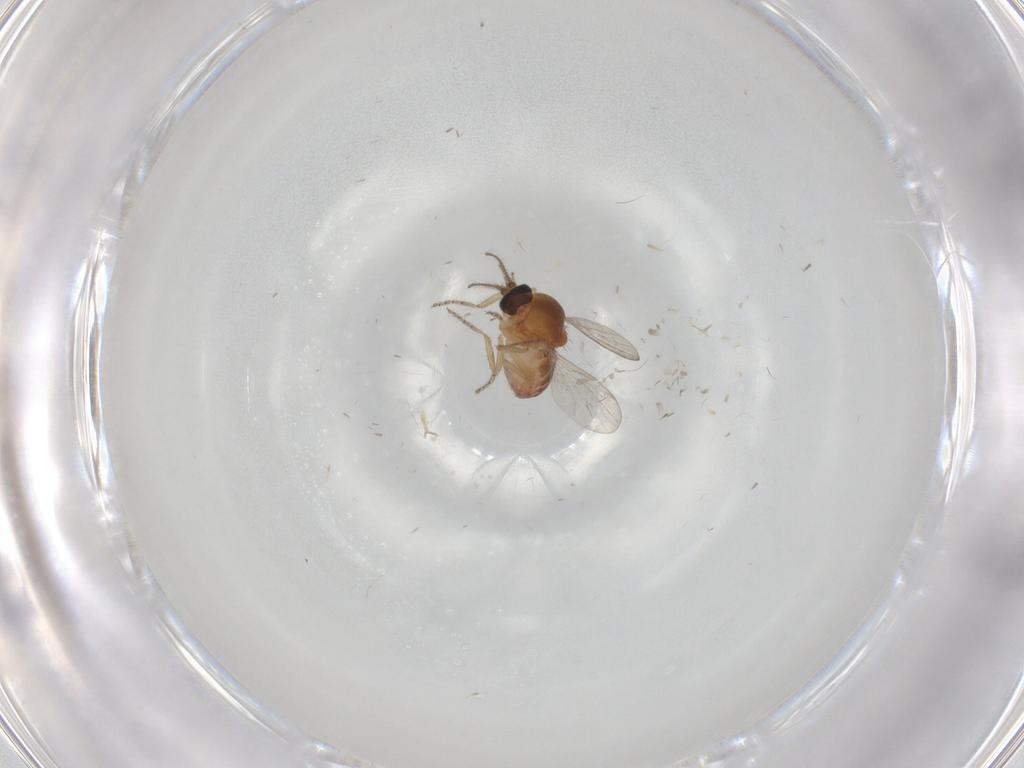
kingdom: Animalia
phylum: Arthropoda
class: Insecta
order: Diptera
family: Ceratopogonidae
